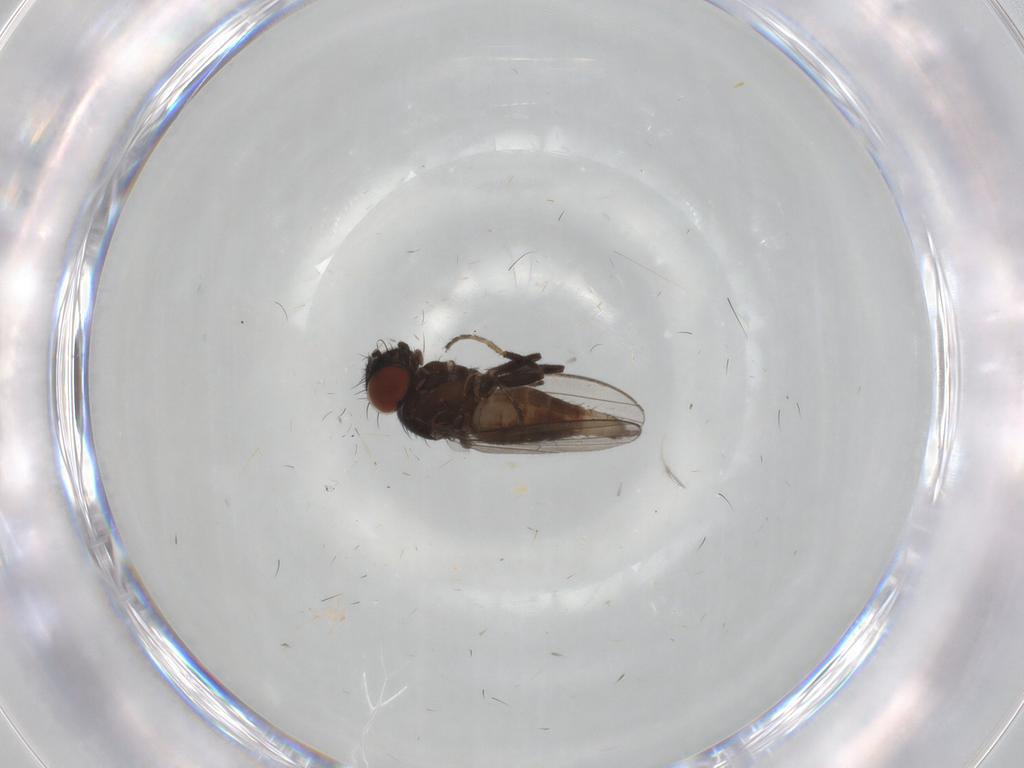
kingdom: Animalia
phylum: Arthropoda
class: Insecta
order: Diptera
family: Milichiidae
